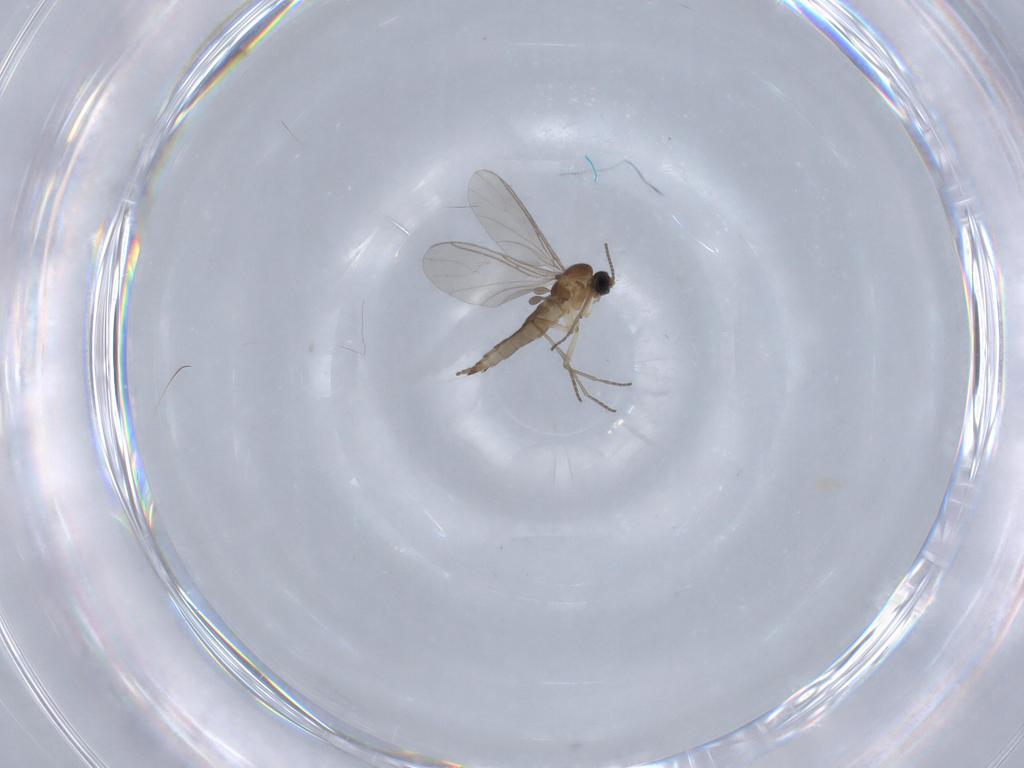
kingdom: Animalia
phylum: Arthropoda
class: Insecta
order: Diptera
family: Sciaridae
